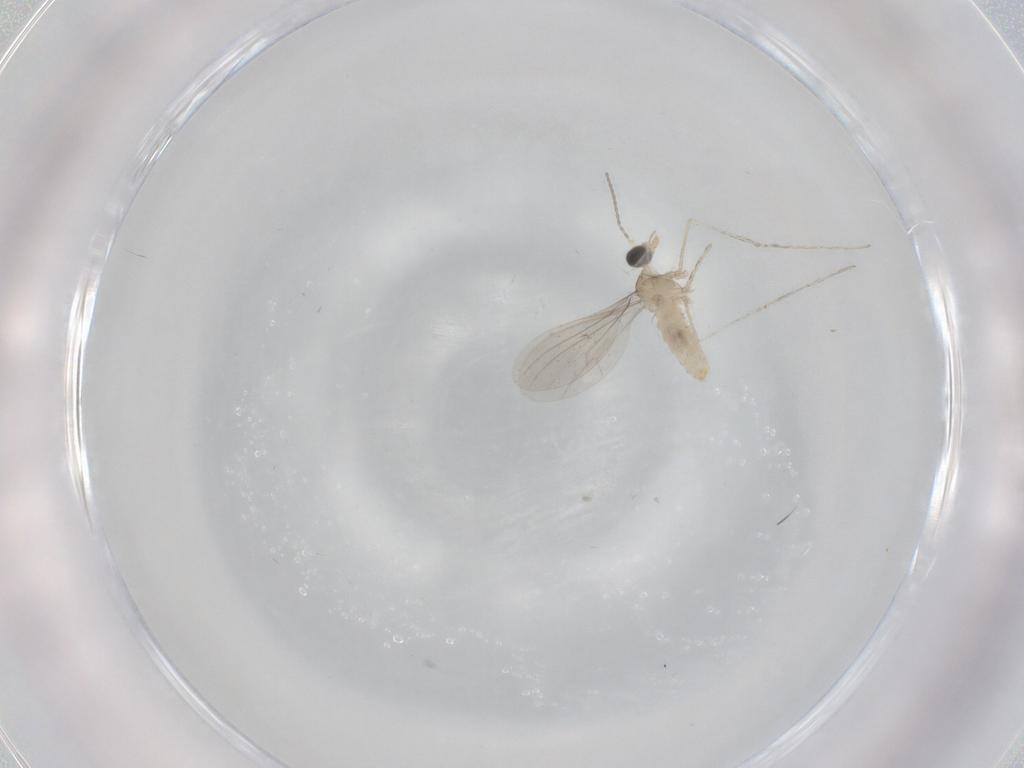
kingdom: Animalia
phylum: Arthropoda
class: Insecta
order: Diptera
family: Cecidomyiidae
